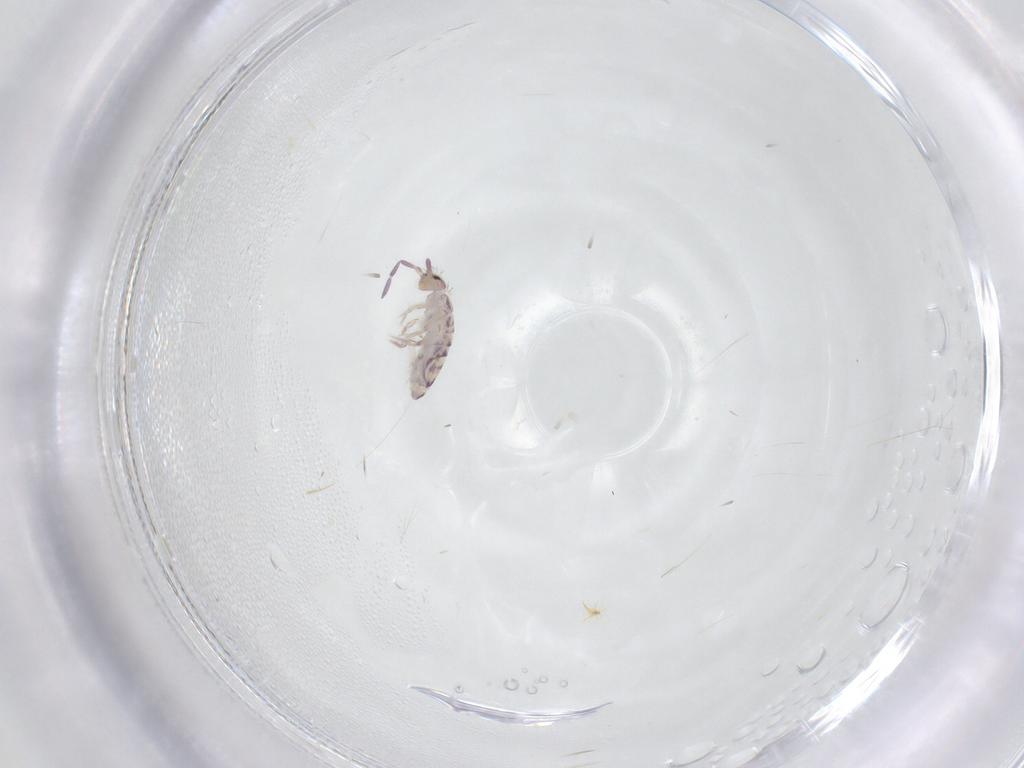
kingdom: Animalia
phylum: Arthropoda
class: Collembola
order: Entomobryomorpha
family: Entomobryidae
